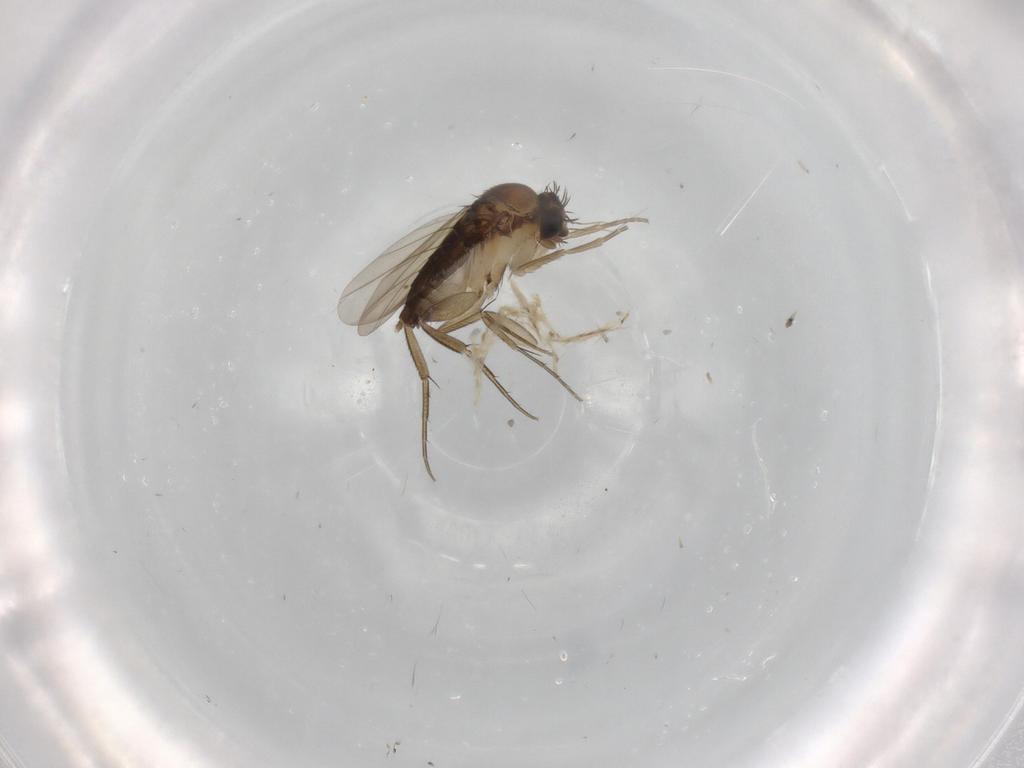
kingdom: Animalia
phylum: Arthropoda
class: Insecta
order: Diptera
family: Phoridae
